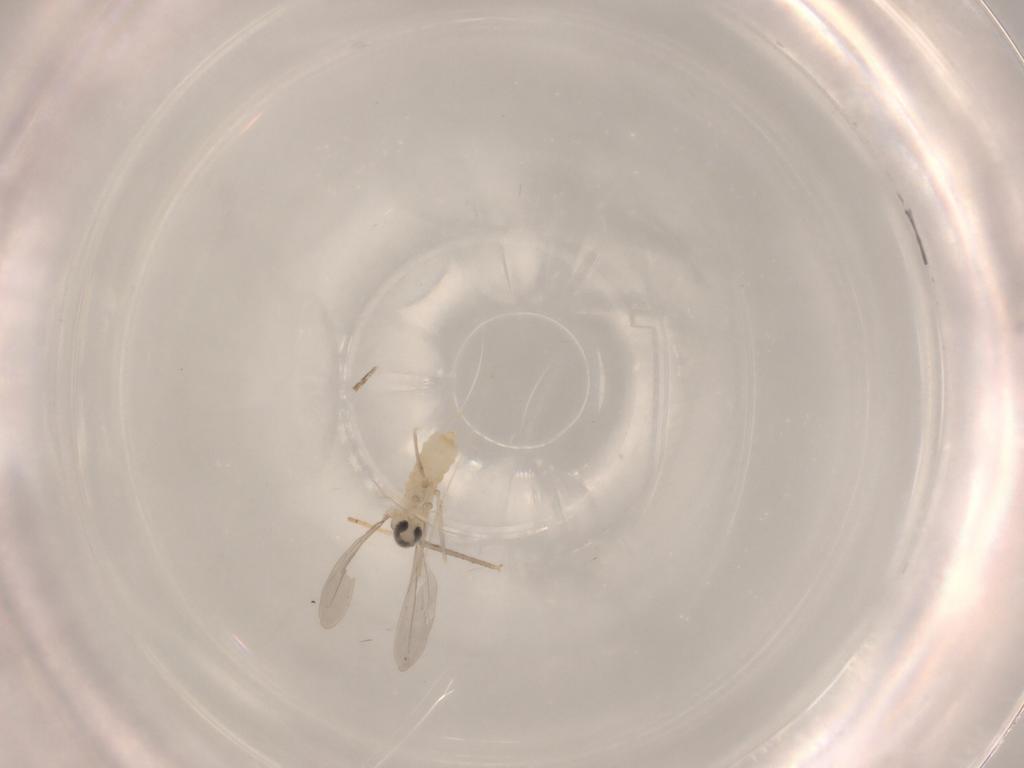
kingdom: Animalia
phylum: Arthropoda
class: Insecta
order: Diptera
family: Cecidomyiidae
